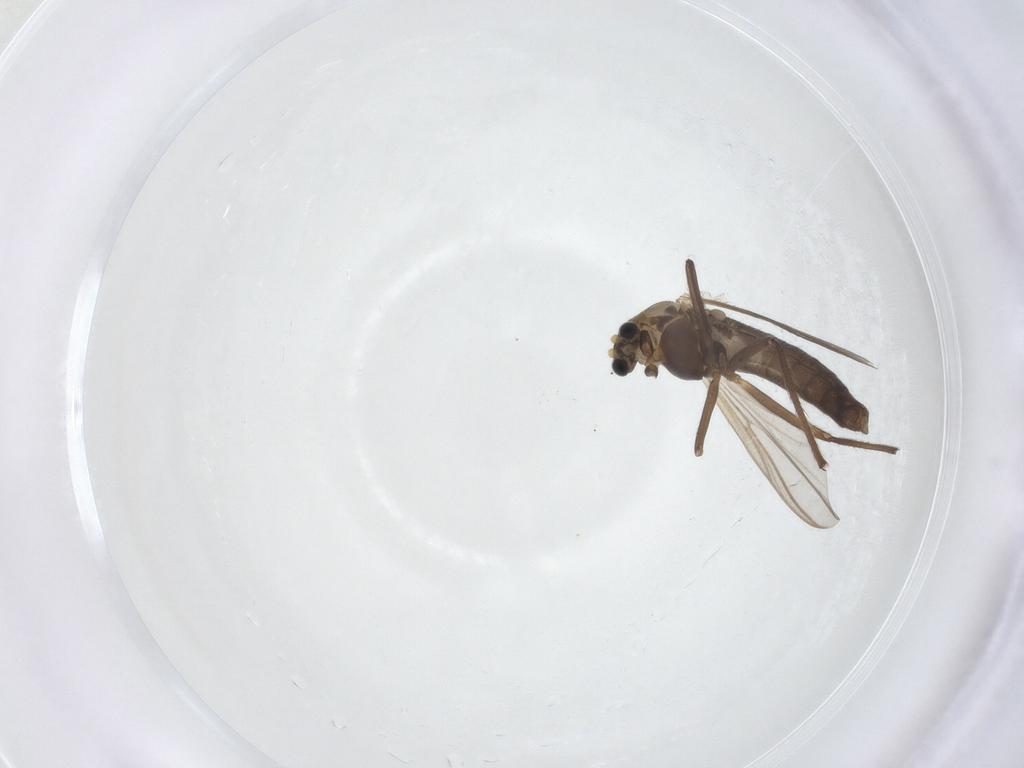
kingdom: Animalia
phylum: Arthropoda
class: Insecta
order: Diptera
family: Chironomidae
